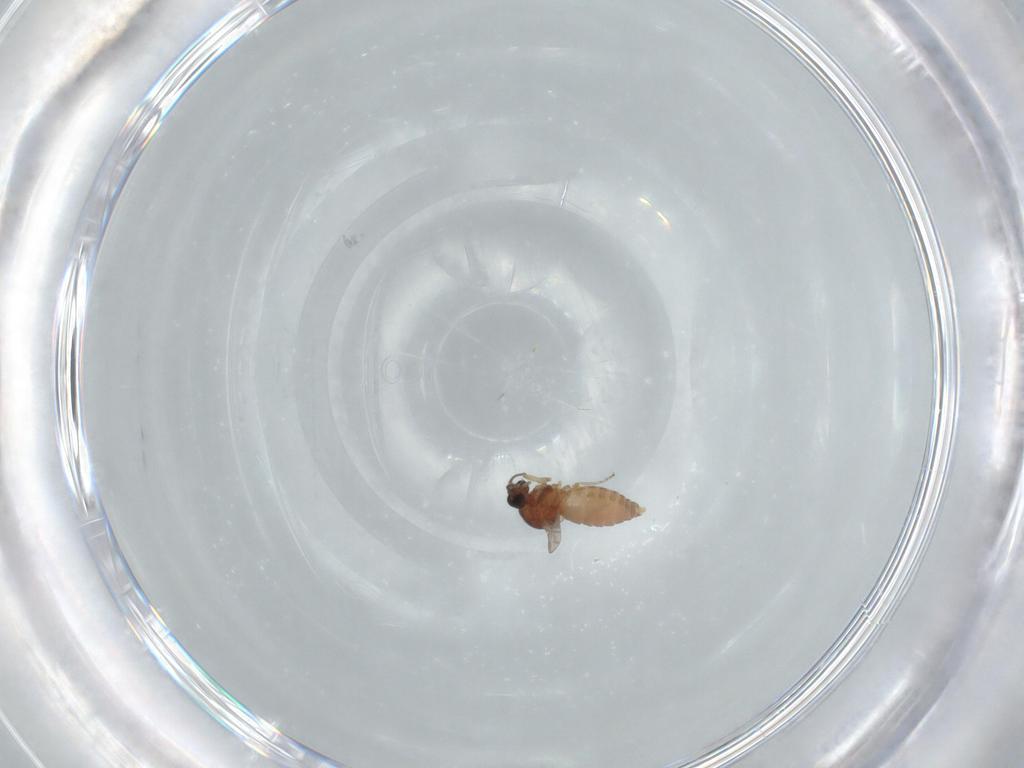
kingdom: Animalia
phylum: Arthropoda
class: Insecta
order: Diptera
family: Ceratopogonidae
